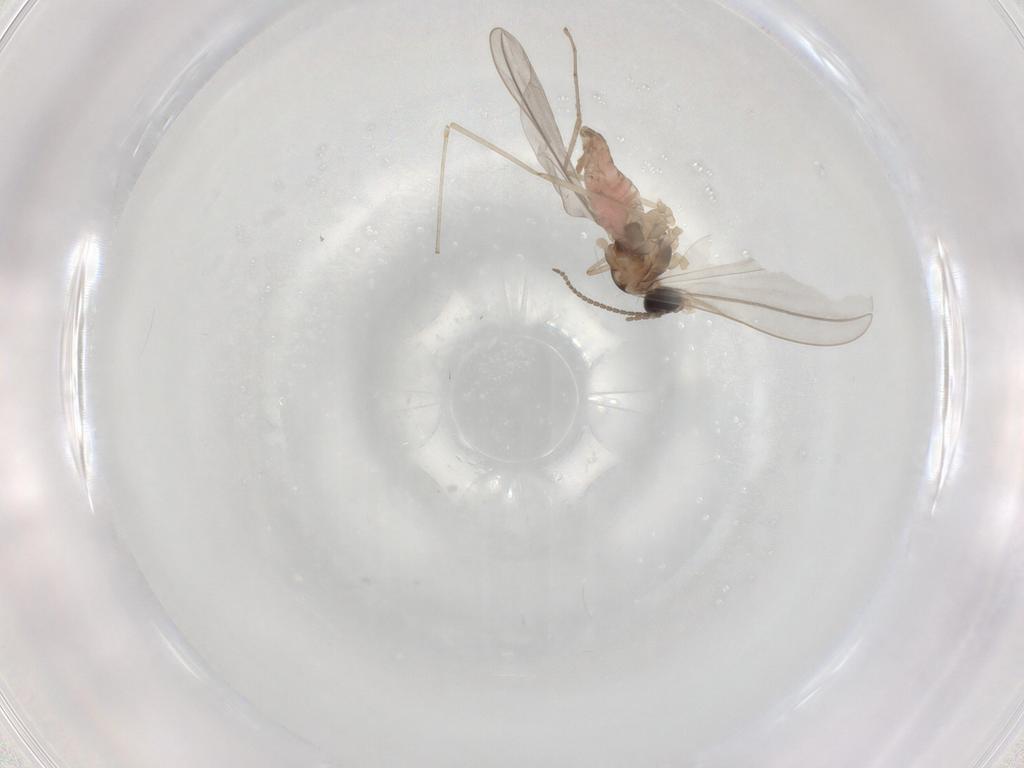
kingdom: Animalia
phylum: Arthropoda
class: Insecta
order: Diptera
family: Cecidomyiidae
